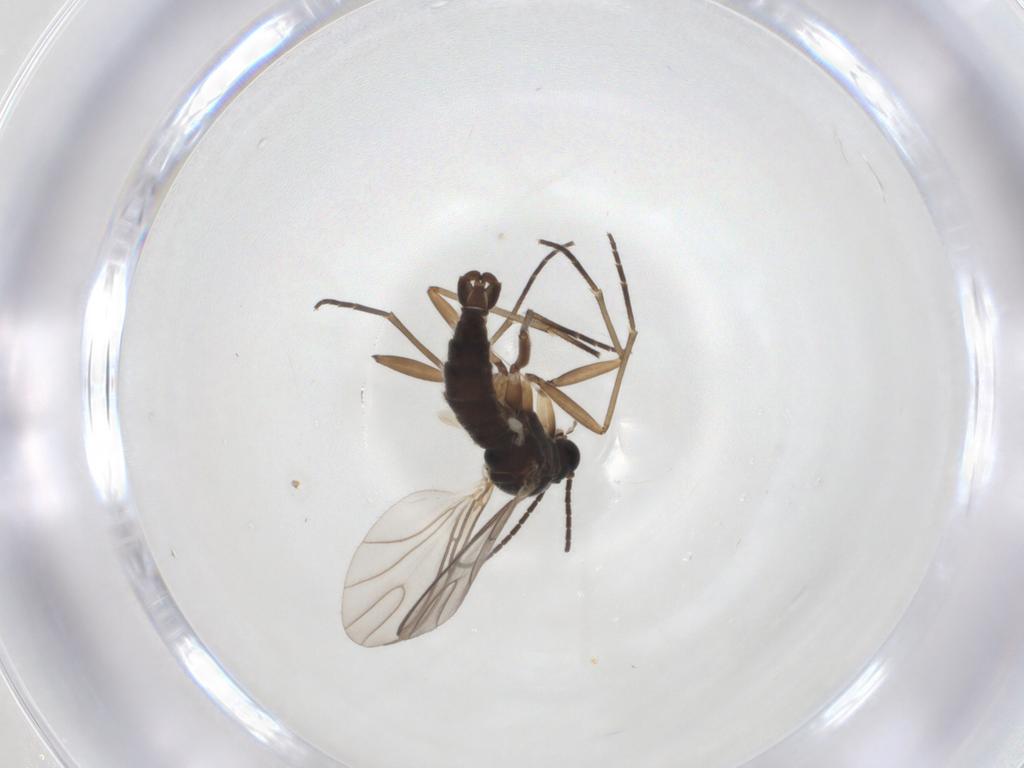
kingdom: Animalia
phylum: Arthropoda
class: Insecta
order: Diptera
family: Sciaridae
